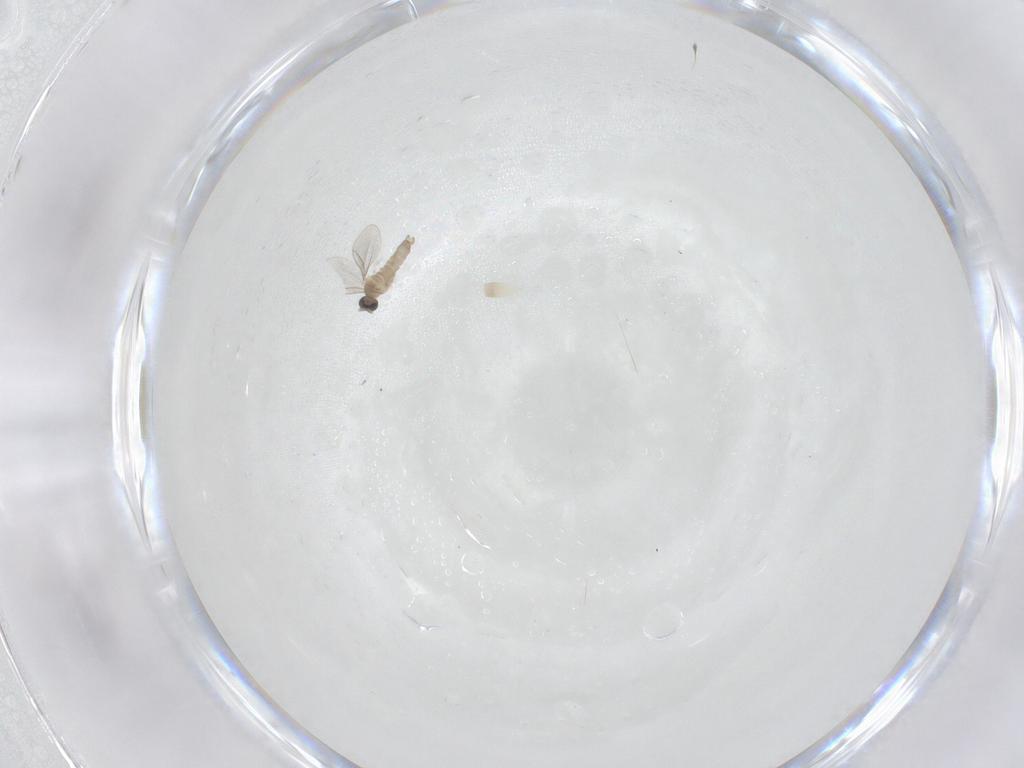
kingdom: Animalia
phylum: Arthropoda
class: Insecta
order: Diptera
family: Cecidomyiidae
